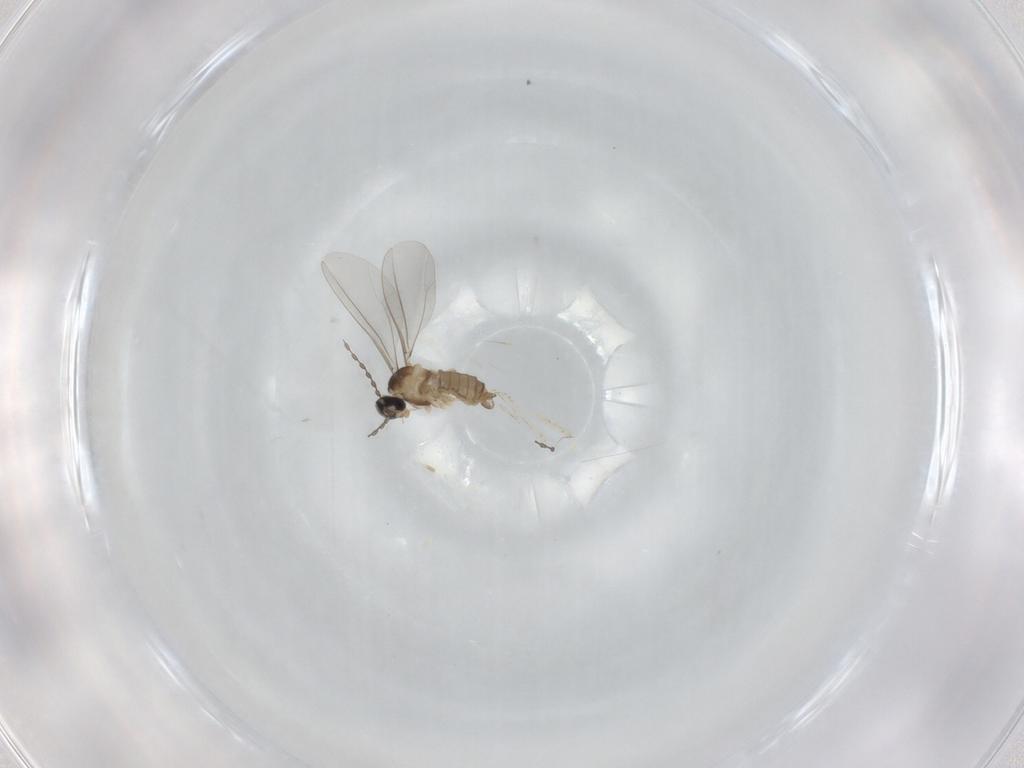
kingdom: Animalia
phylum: Arthropoda
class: Insecta
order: Diptera
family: Cecidomyiidae
